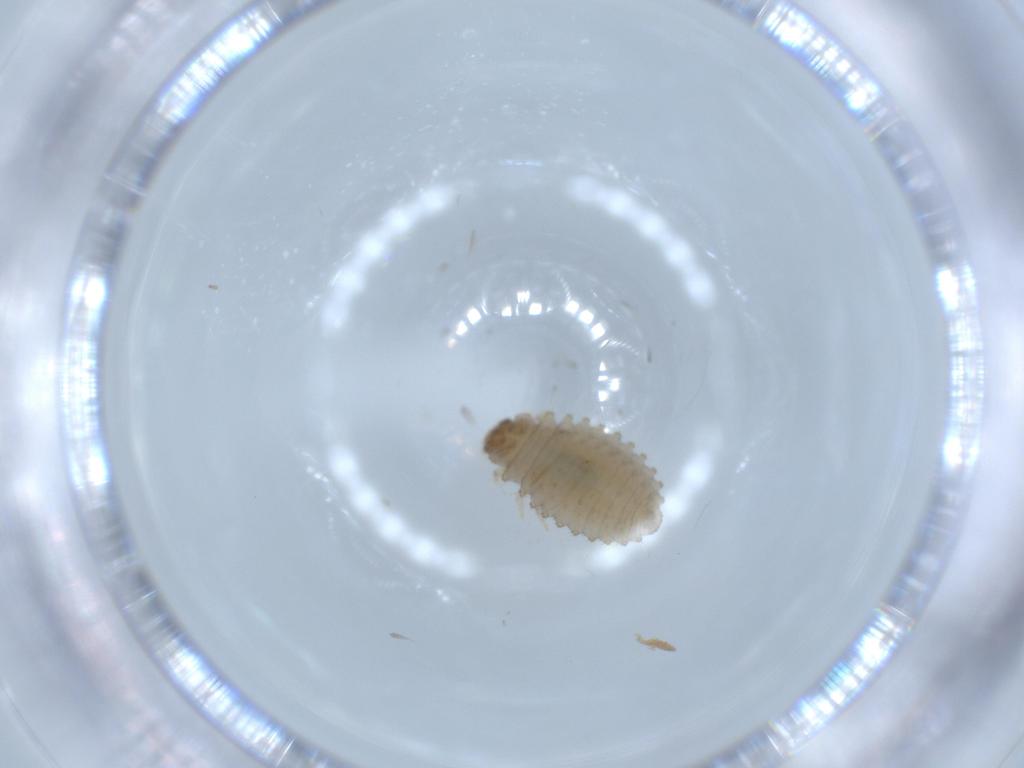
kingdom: Animalia
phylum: Arthropoda
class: Insecta
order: Coleoptera
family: Coccinellidae
